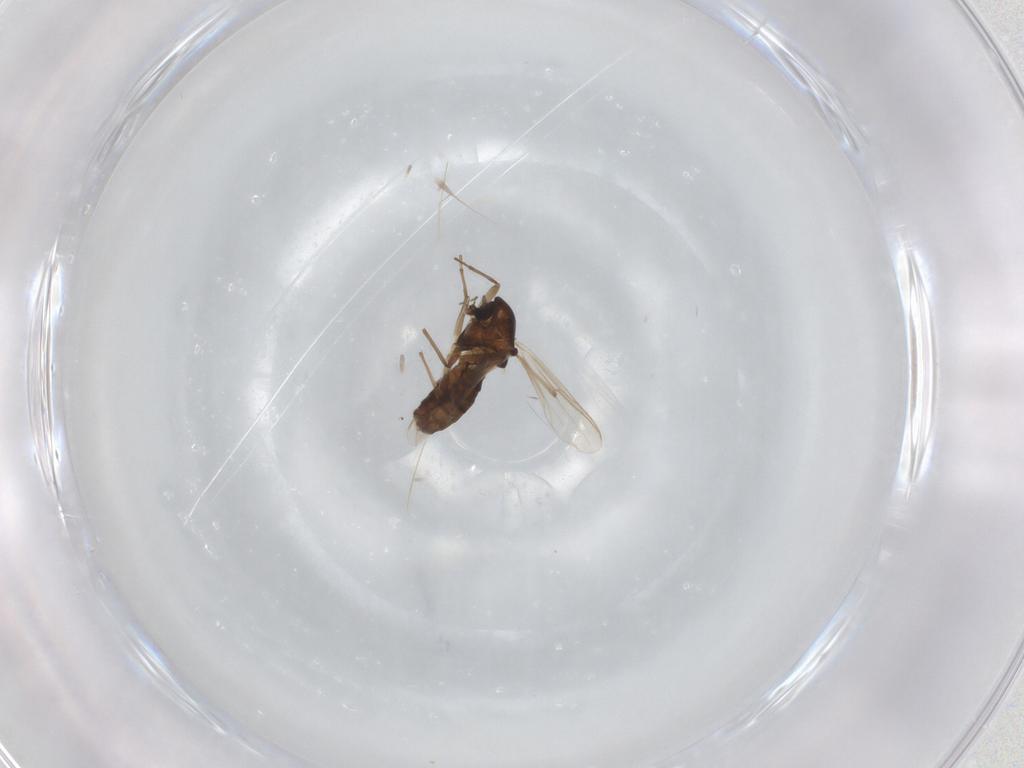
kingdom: Animalia
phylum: Arthropoda
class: Insecta
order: Diptera
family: Chironomidae
